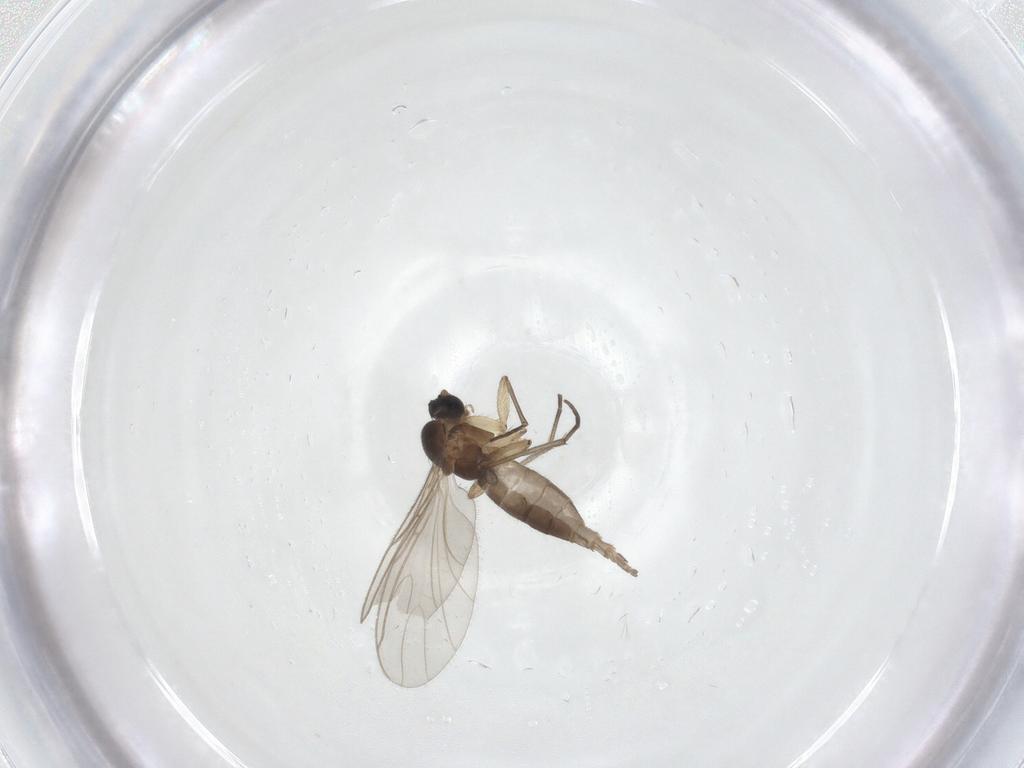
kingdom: Animalia
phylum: Arthropoda
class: Insecta
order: Diptera
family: Sciaridae
